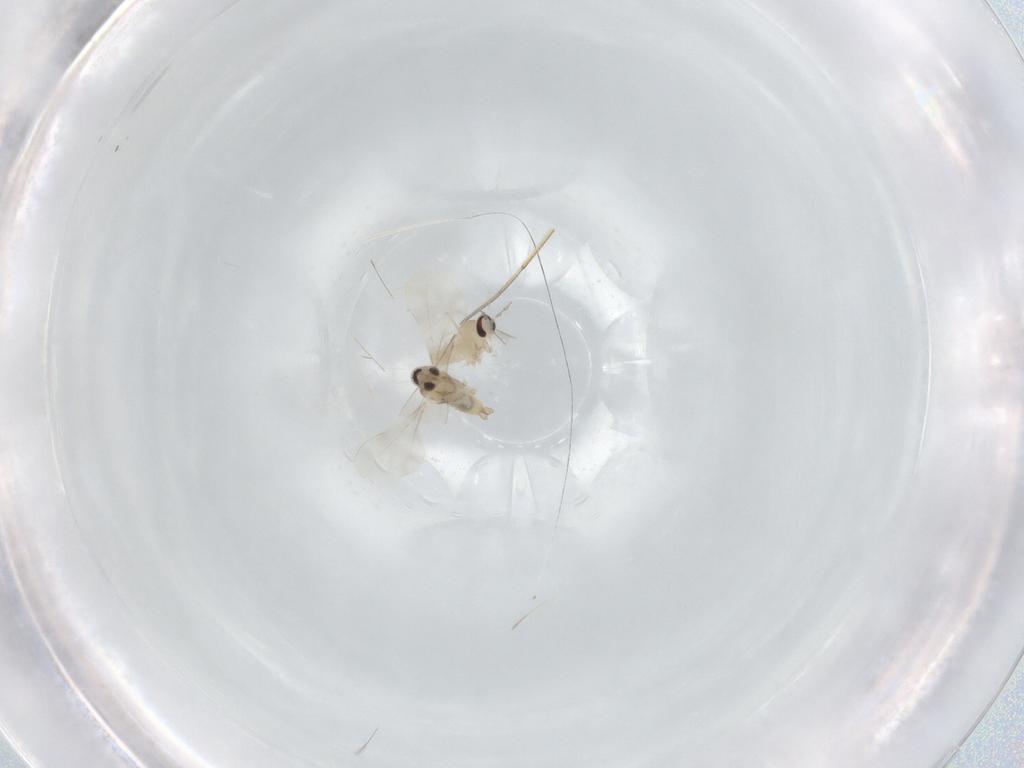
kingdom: Animalia
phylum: Arthropoda
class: Insecta
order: Diptera
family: Cecidomyiidae
